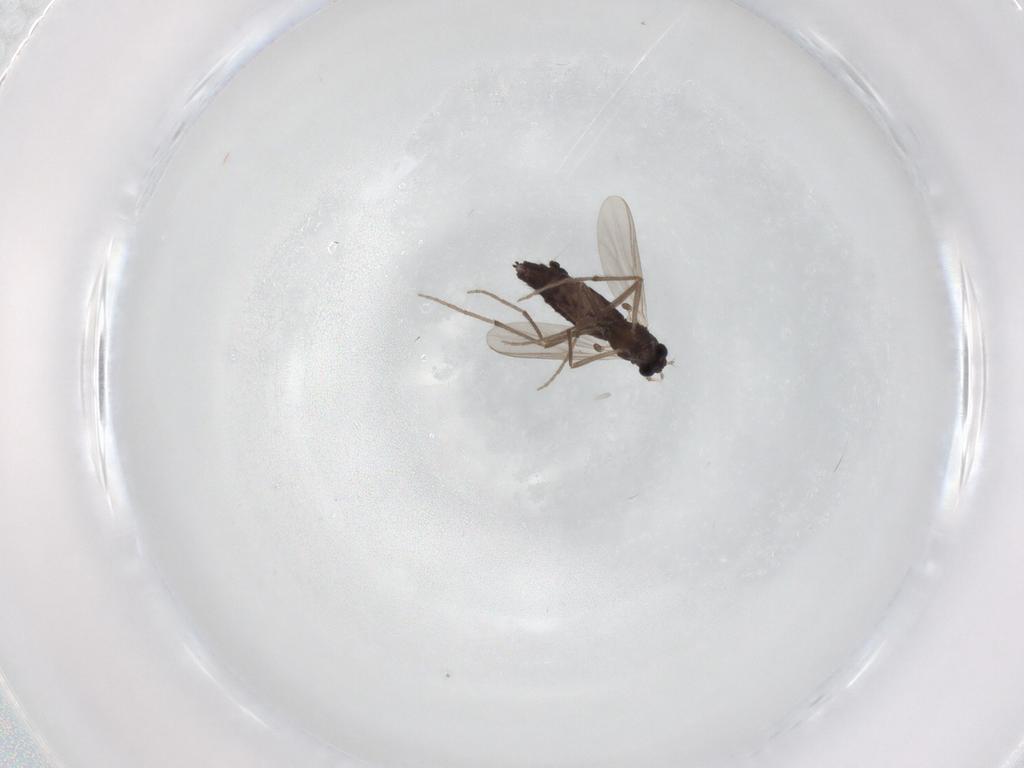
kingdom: Animalia
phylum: Arthropoda
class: Insecta
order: Diptera
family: Chironomidae
